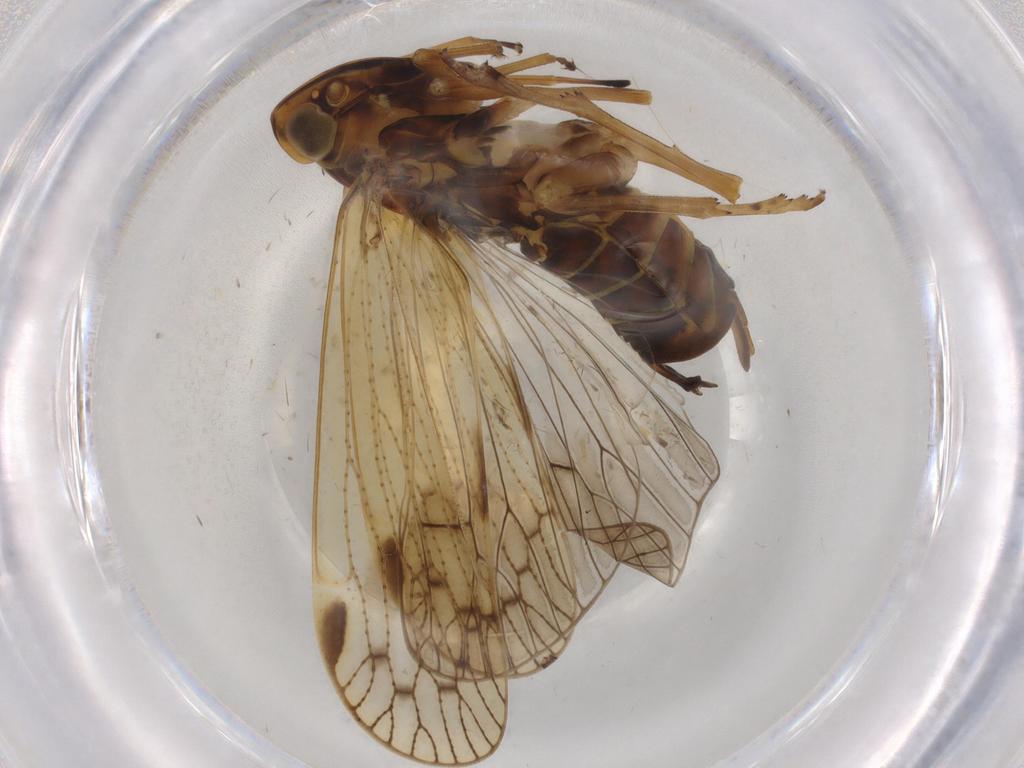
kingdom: Animalia
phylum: Arthropoda
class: Insecta
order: Hemiptera
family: Cixiidae
